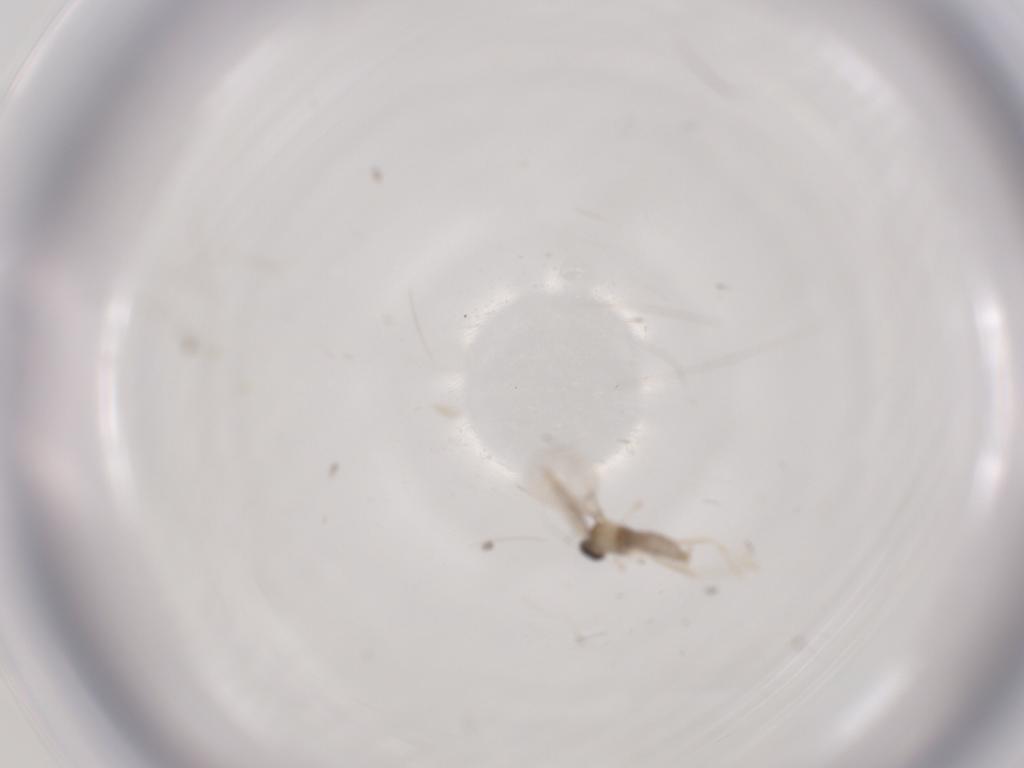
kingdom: Animalia
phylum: Arthropoda
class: Insecta
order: Diptera
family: Cecidomyiidae
